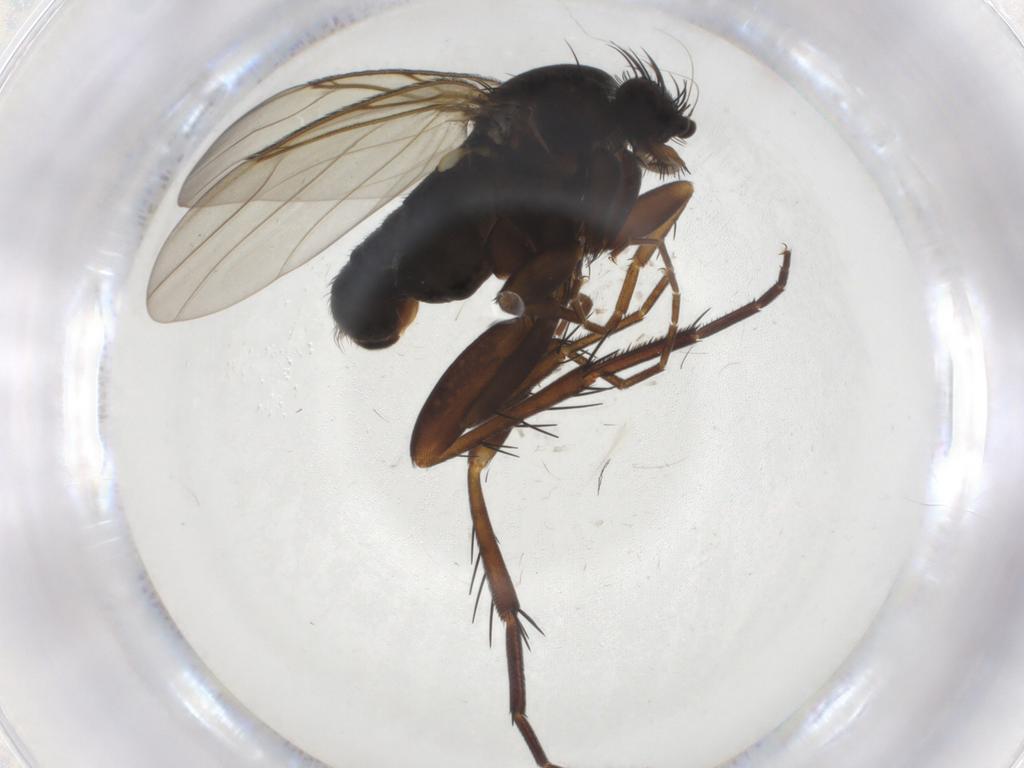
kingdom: Animalia
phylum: Arthropoda
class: Insecta
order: Diptera
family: Phoridae
